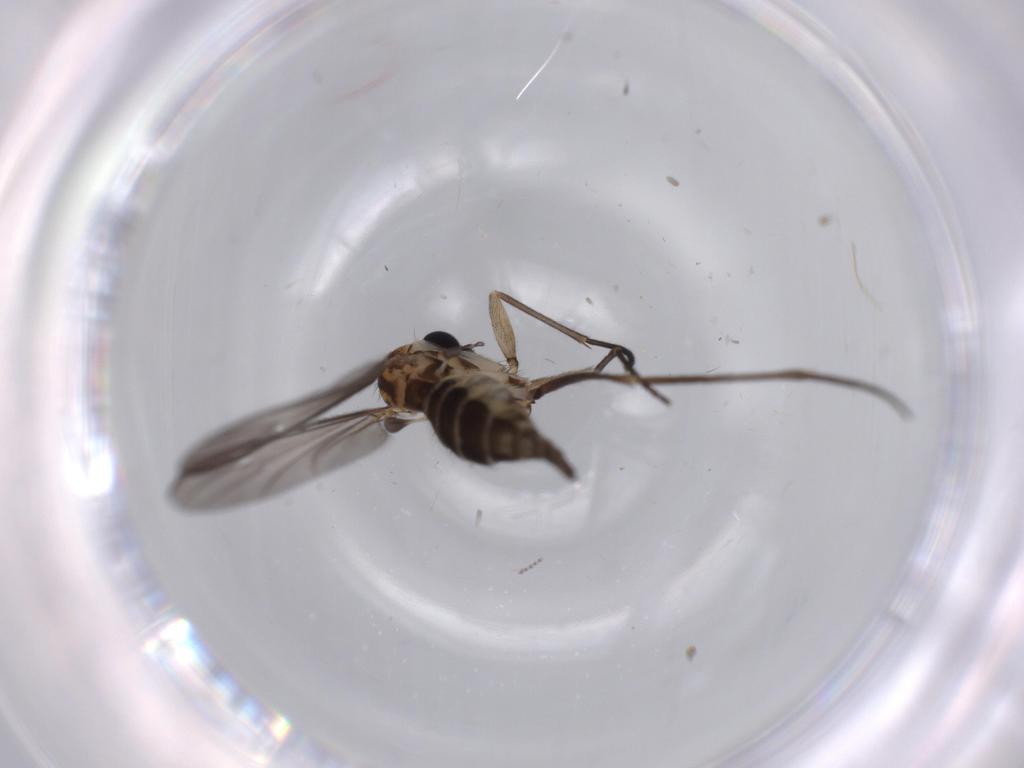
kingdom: Animalia
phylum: Arthropoda
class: Insecta
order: Diptera
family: Sciaridae
